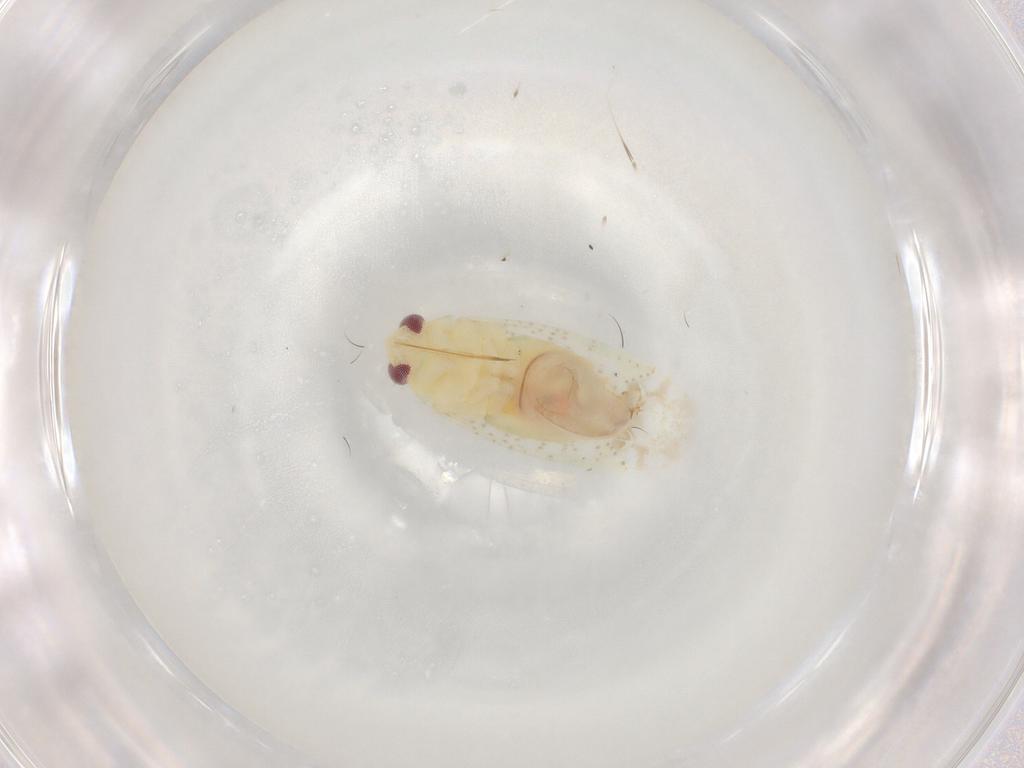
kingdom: Animalia
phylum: Arthropoda
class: Insecta
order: Hemiptera
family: Miridae
